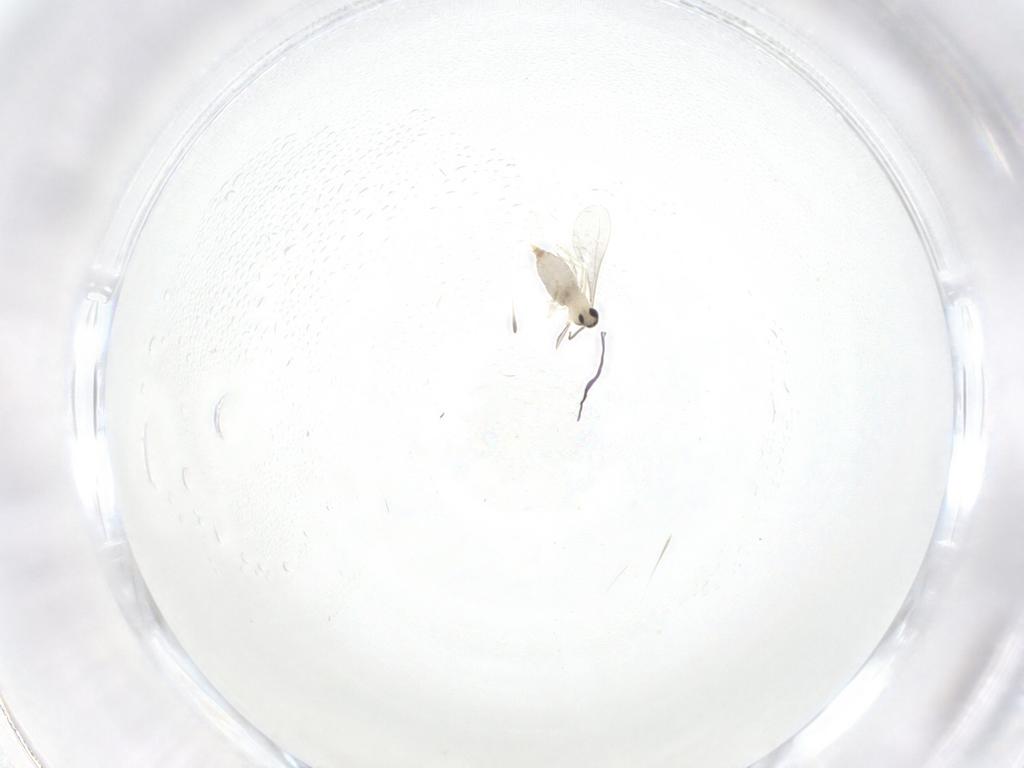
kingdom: Animalia
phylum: Arthropoda
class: Insecta
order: Diptera
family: Cecidomyiidae
